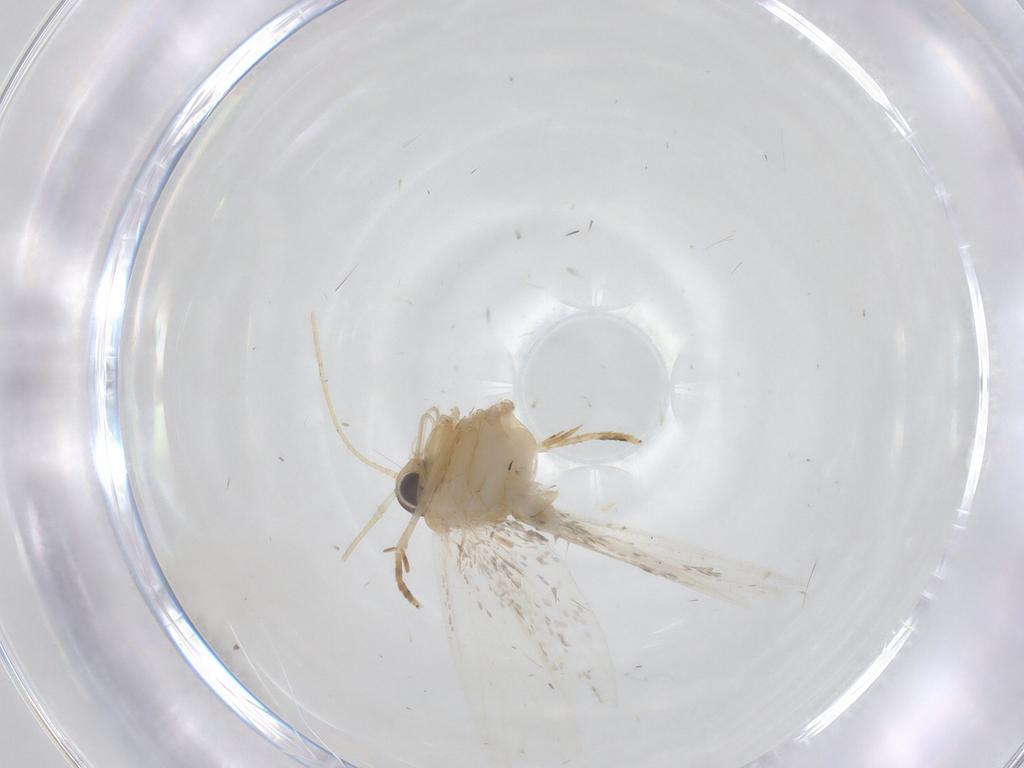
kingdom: Animalia
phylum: Arthropoda
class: Insecta
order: Lepidoptera
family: Oecophoridae
